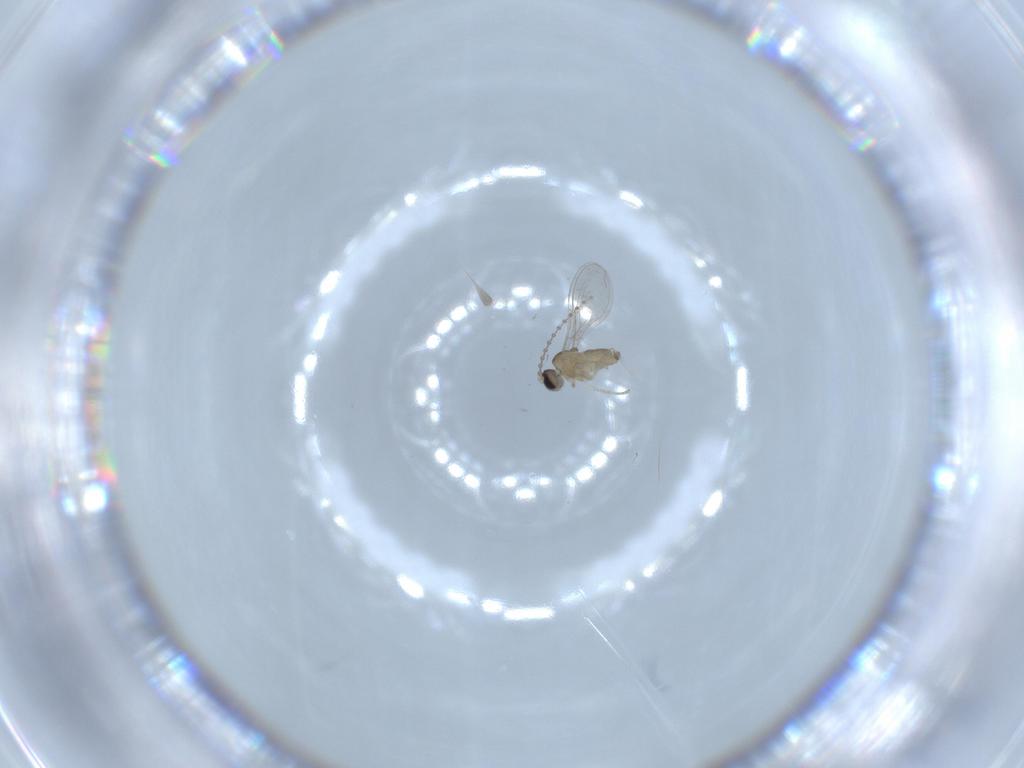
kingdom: Animalia
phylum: Arthropoda
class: Insecta
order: Diptera
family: Cecidomyiidae
